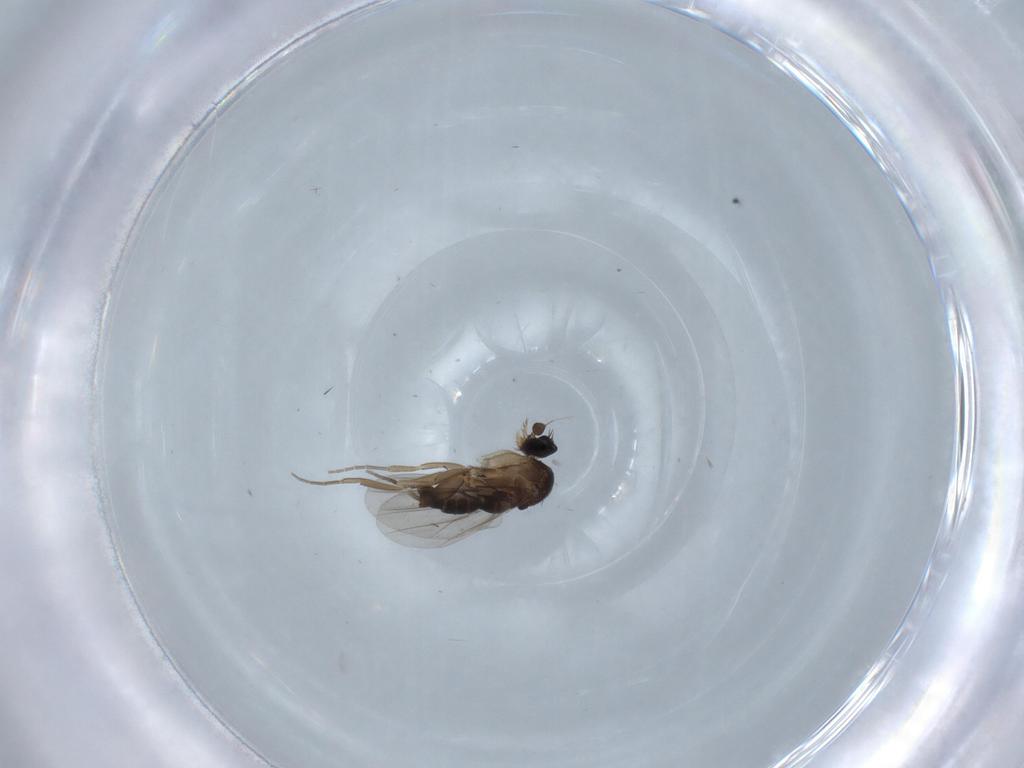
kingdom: Animalia
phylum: Arthropoda
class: Insecta
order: Diptera
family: Phoridae
